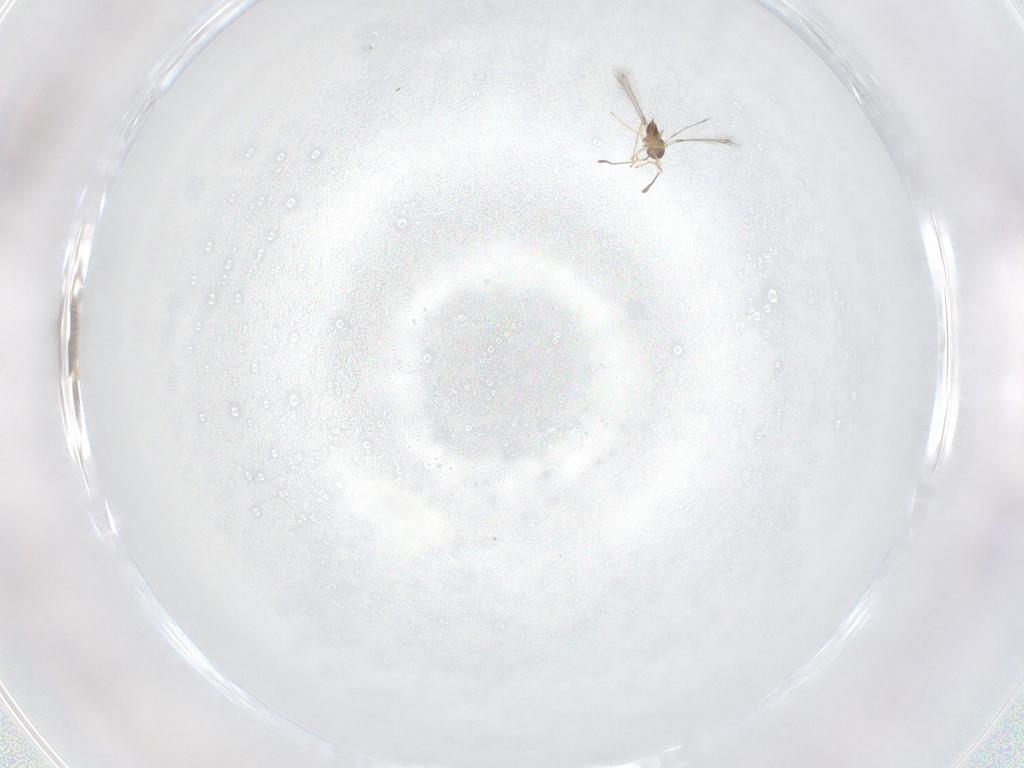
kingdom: Animalia
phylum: Arthropoda
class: Insecta
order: Hymenoptera
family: Mymaridae
